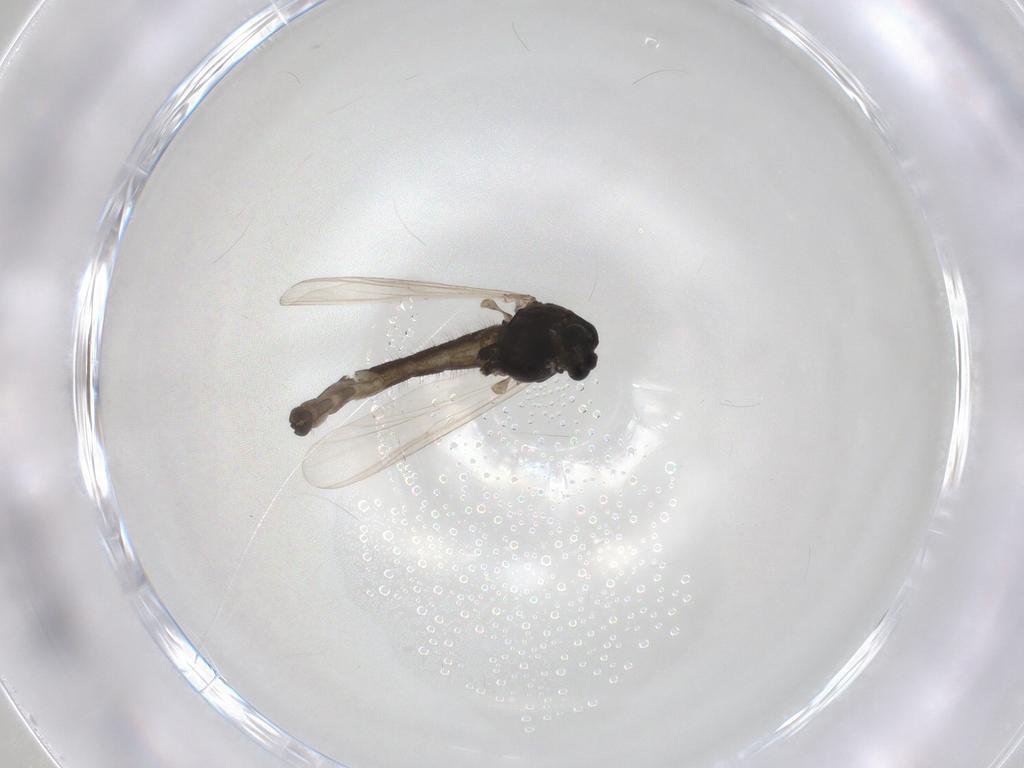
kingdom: Animalia
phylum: Arthropoda
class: Insecta
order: Diptera
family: Chironomidae
